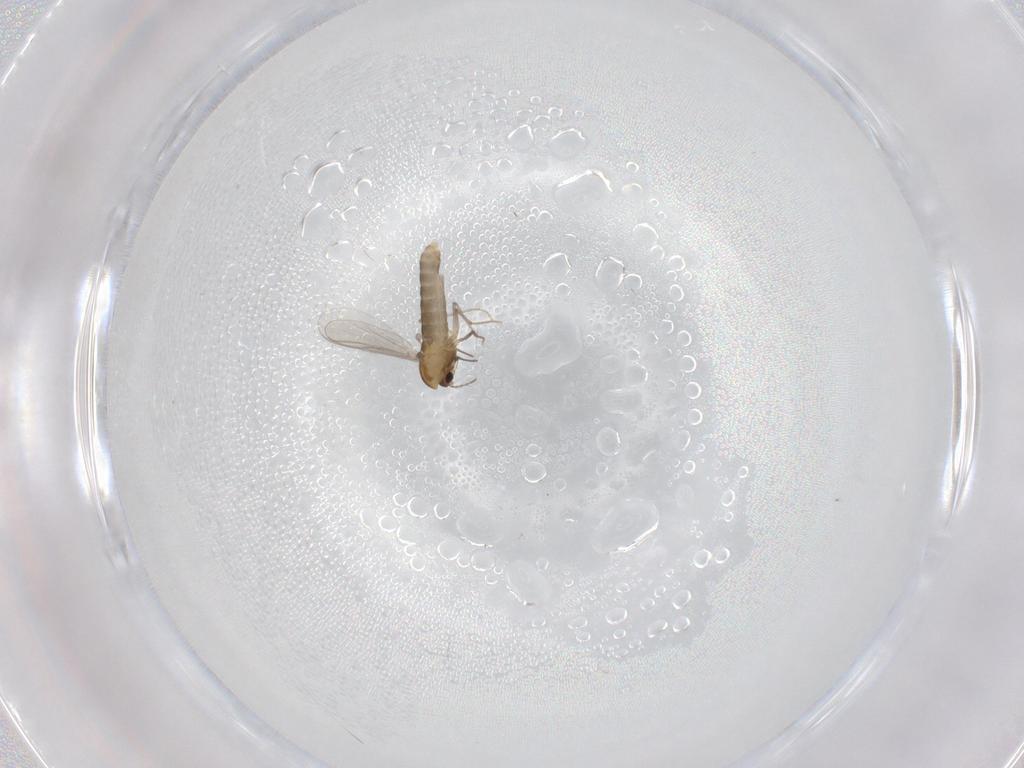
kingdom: Animalia
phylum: Arthropoda
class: Insecta
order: Diptera
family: Chironomidae
